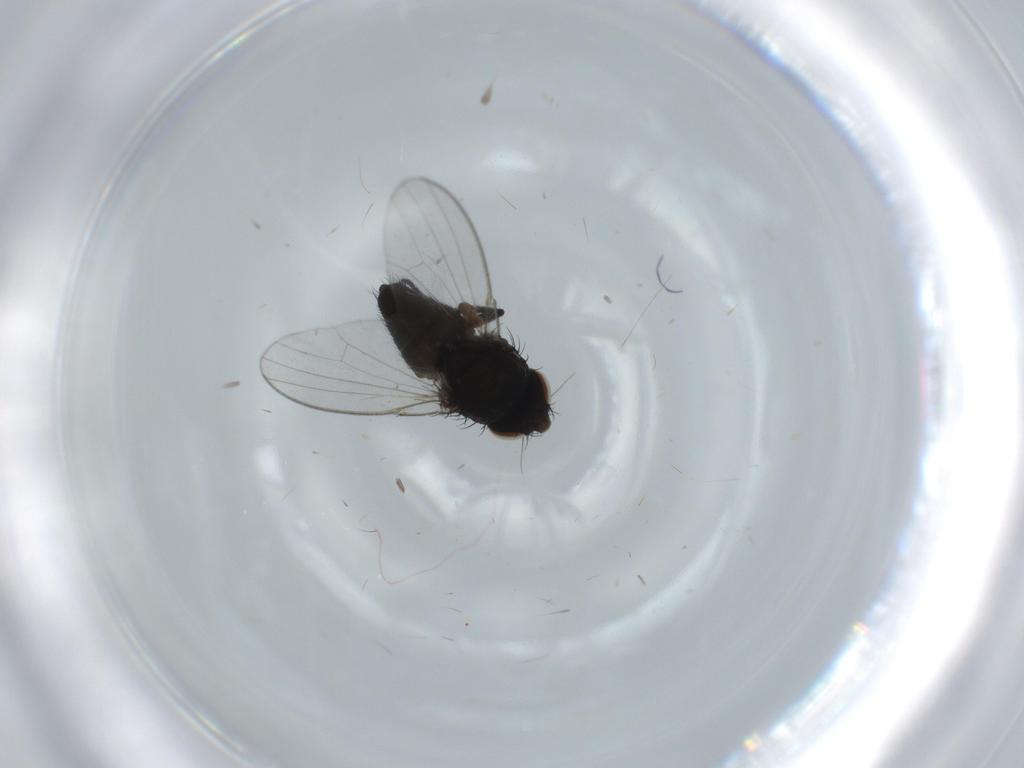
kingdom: Animalia
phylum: Arthropoda
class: Insecta
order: Diptera
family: Milichiidae
